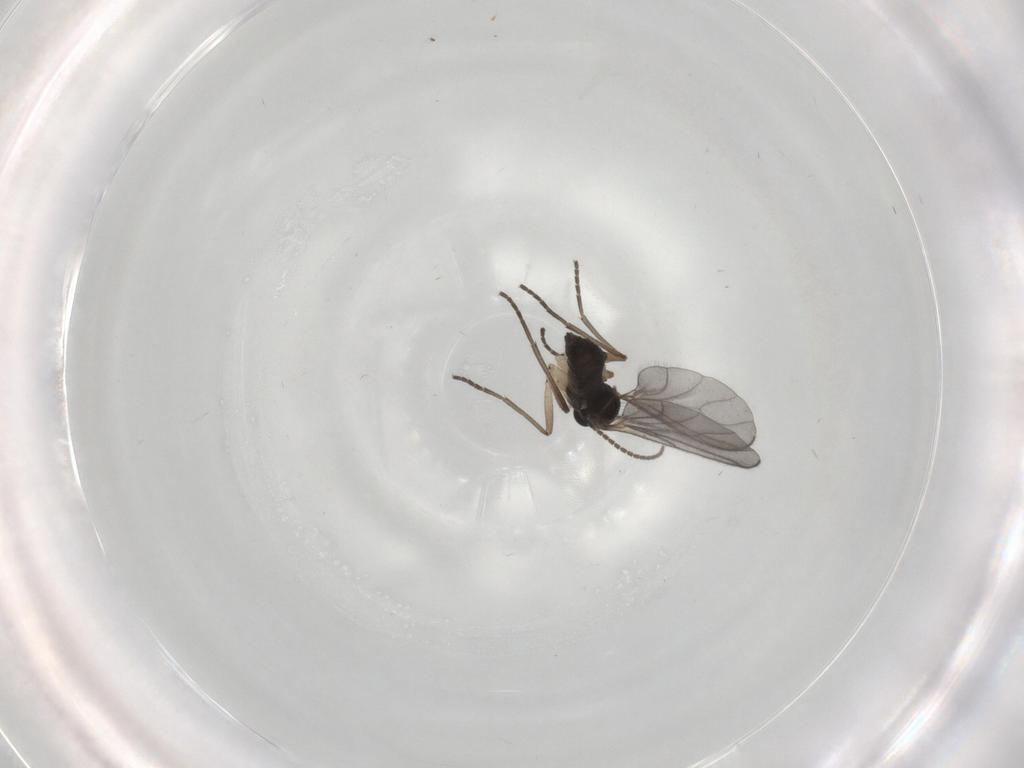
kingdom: Animalia
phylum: Arthropoda
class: Insecta
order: Diptera
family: Sciaridae
